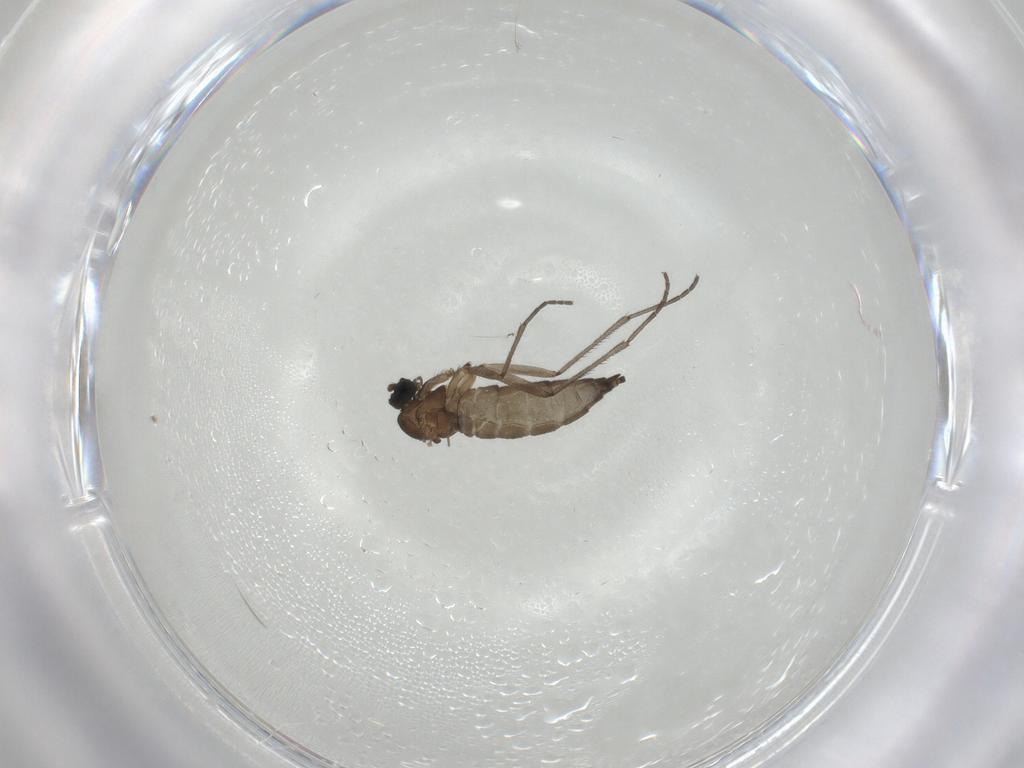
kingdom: Animalia
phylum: Arthropoda
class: Insecta
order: Diptera
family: Sciaridae
